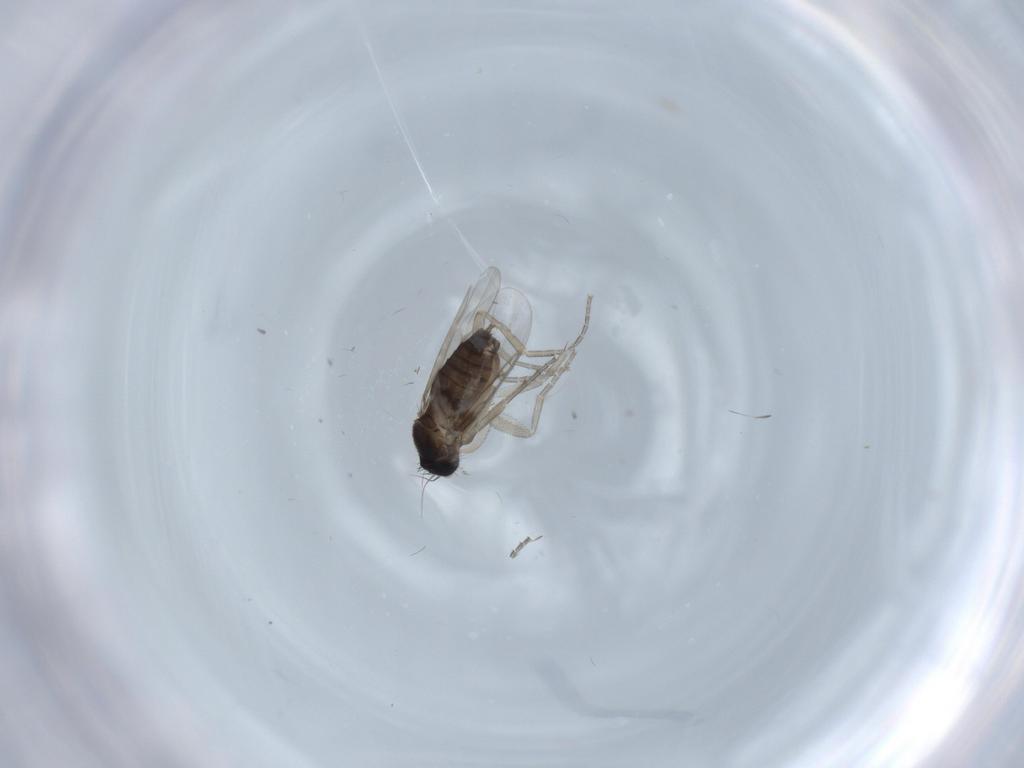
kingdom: Animalia
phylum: Arthropoda
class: Insecta
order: Diptera
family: Phoridae
